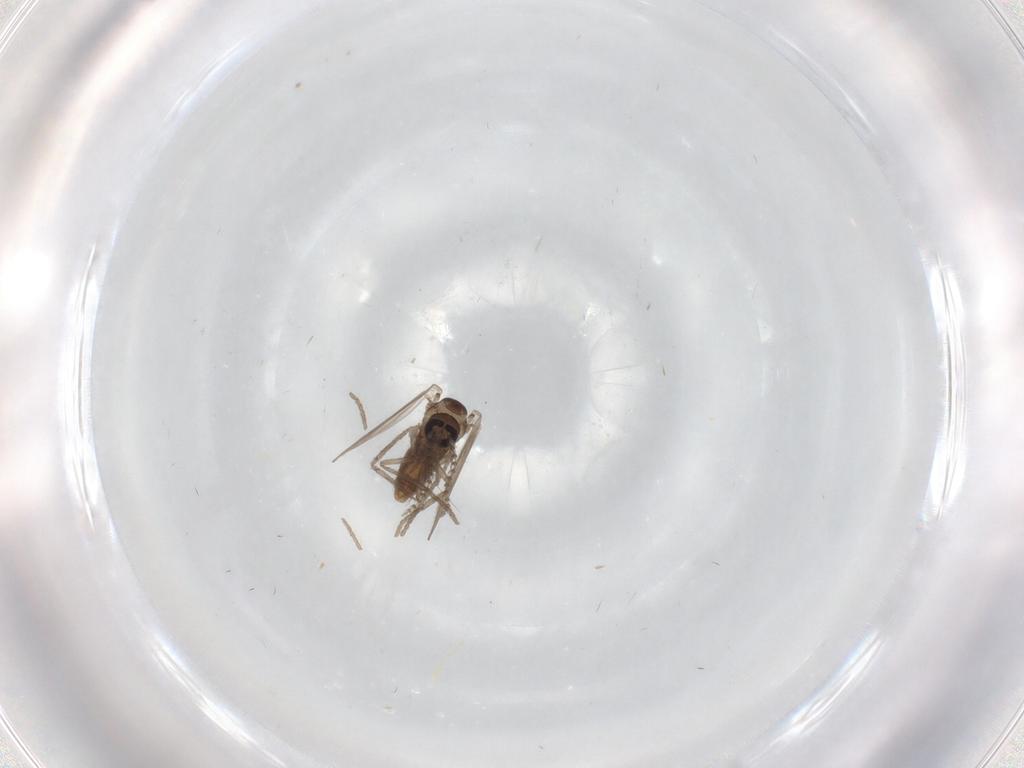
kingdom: Animalia
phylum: Arthropoda
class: Insecta
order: Diptera
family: Psychodidae
